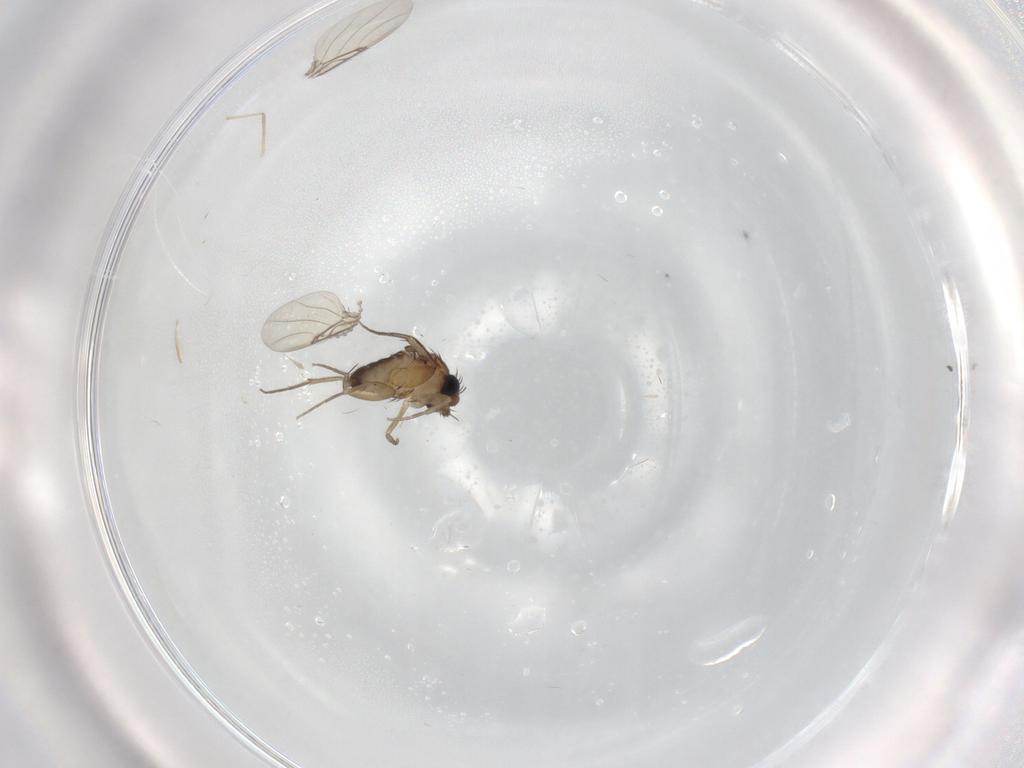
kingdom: Animalia
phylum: Arthropoda
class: Insecta
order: Diptera
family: Phoridae
